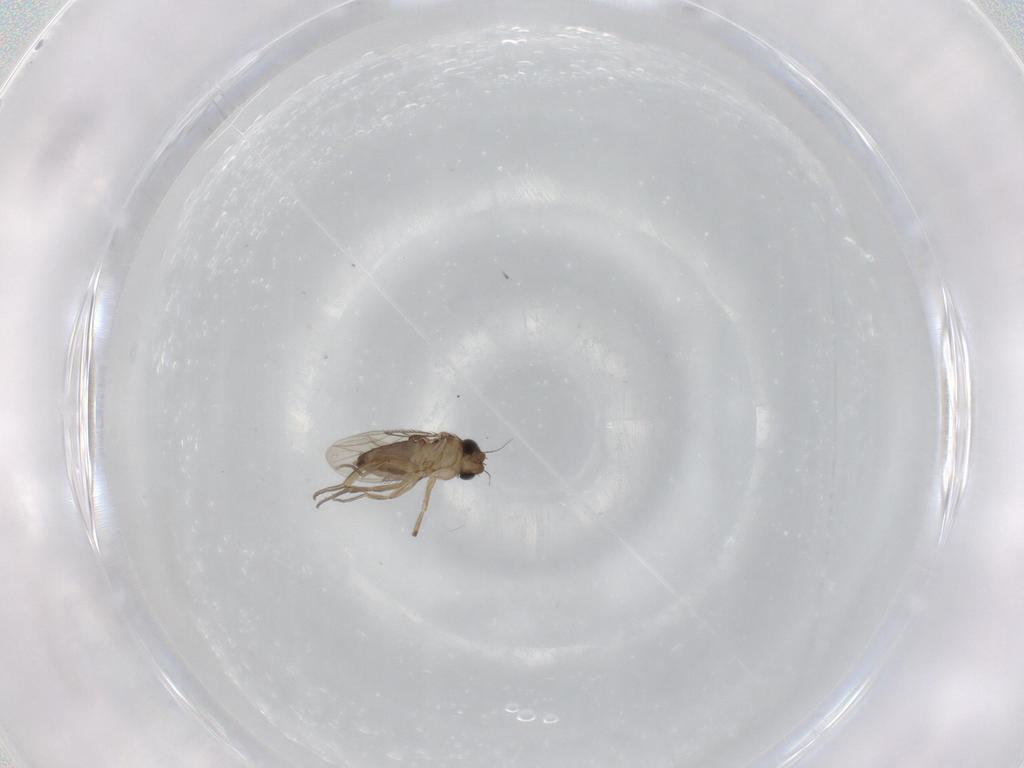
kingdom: Animalia
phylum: Arthropoda
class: Insecta
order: Diptera
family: Phoridae
